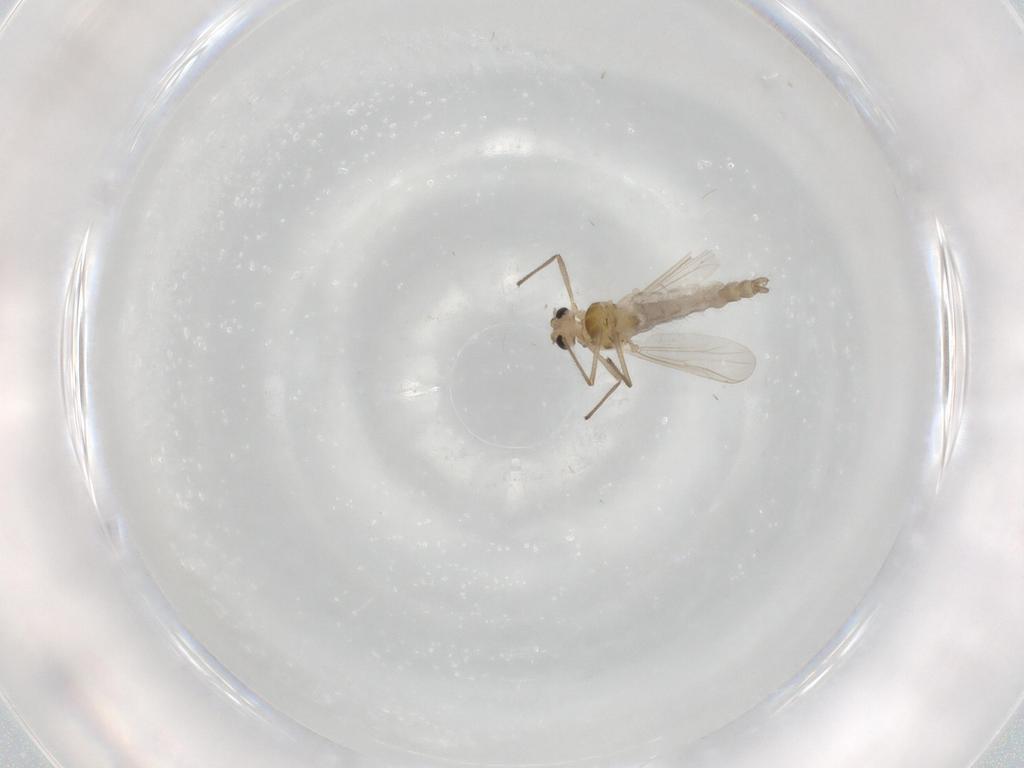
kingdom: Animalia
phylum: Arthropoda
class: Insecta
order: Diptera
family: Chironomidae
